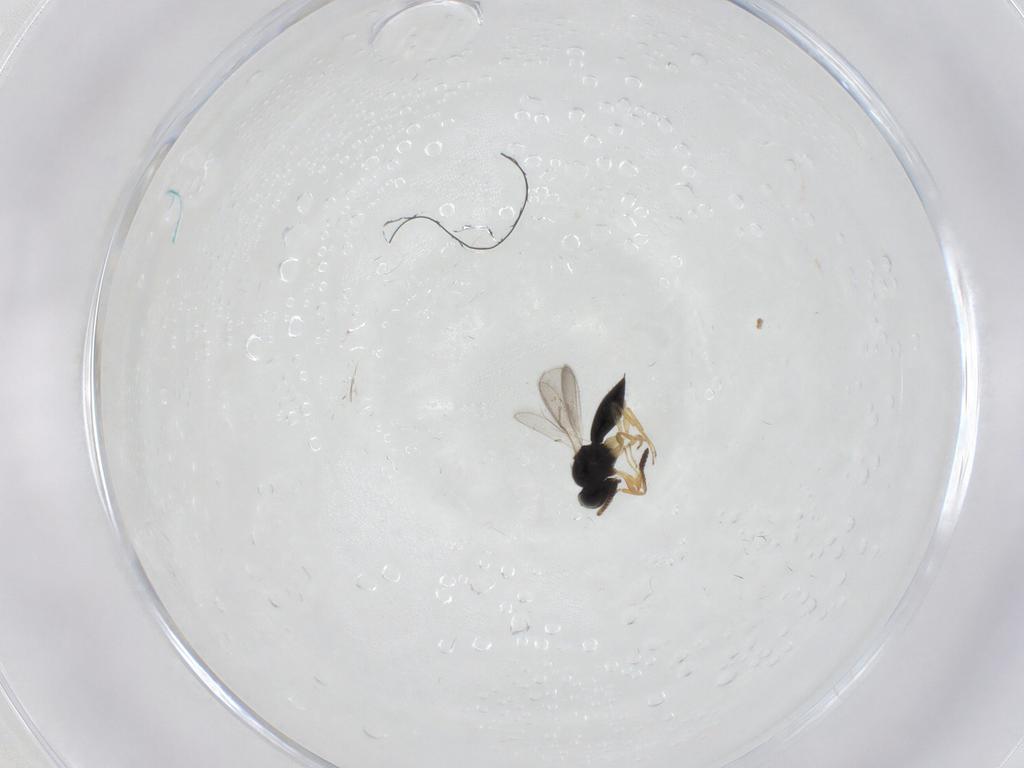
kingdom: Animalia
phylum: Arthropoda
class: Insecta
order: Hymenoptera
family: Scelionidae
